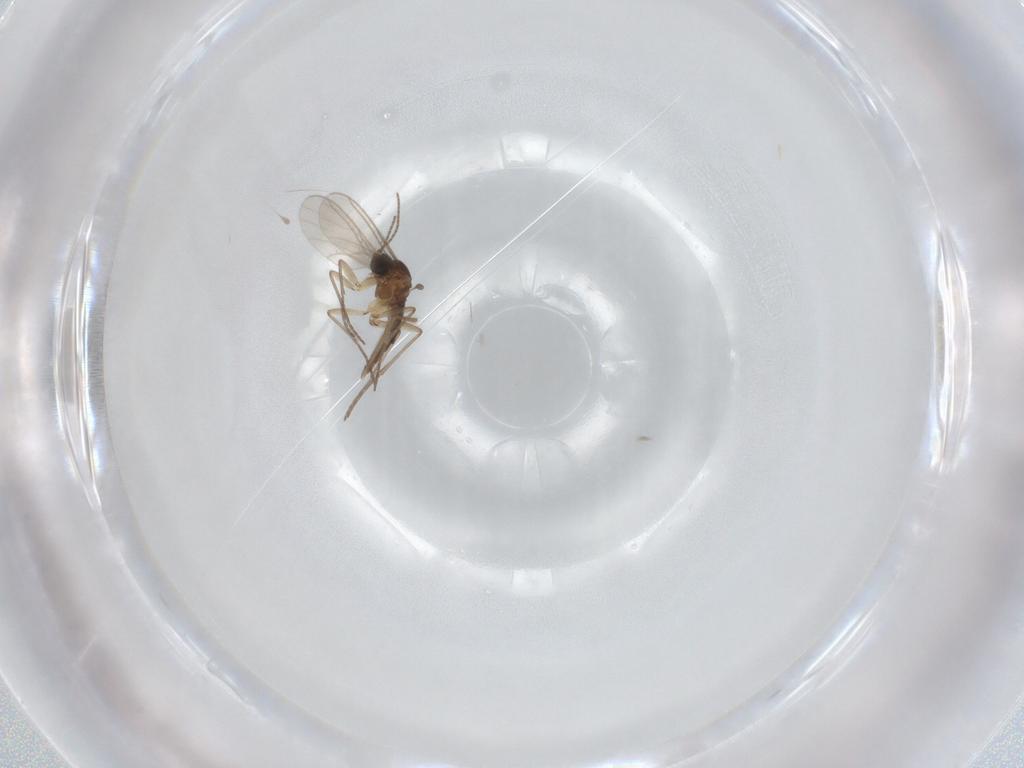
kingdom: Animalia
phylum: Arthropoda
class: Insecta
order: Diptera
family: Sciaridae
